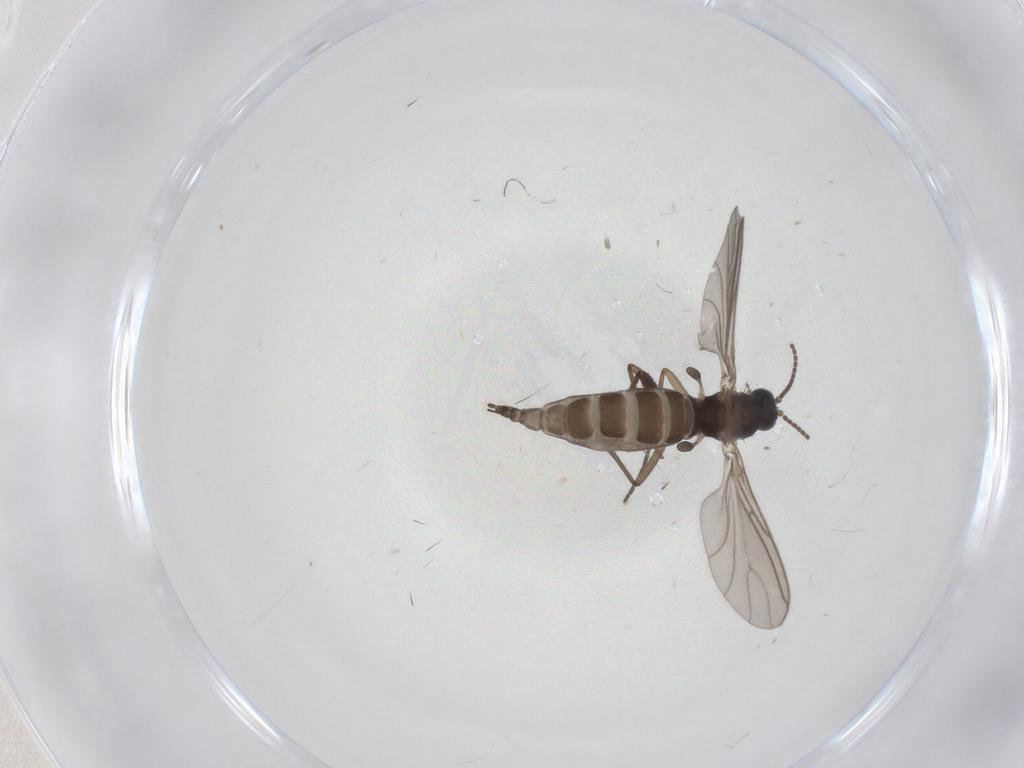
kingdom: Animalia
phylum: Arthropoda
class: Insecta
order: Diptera
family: Sciaridae
